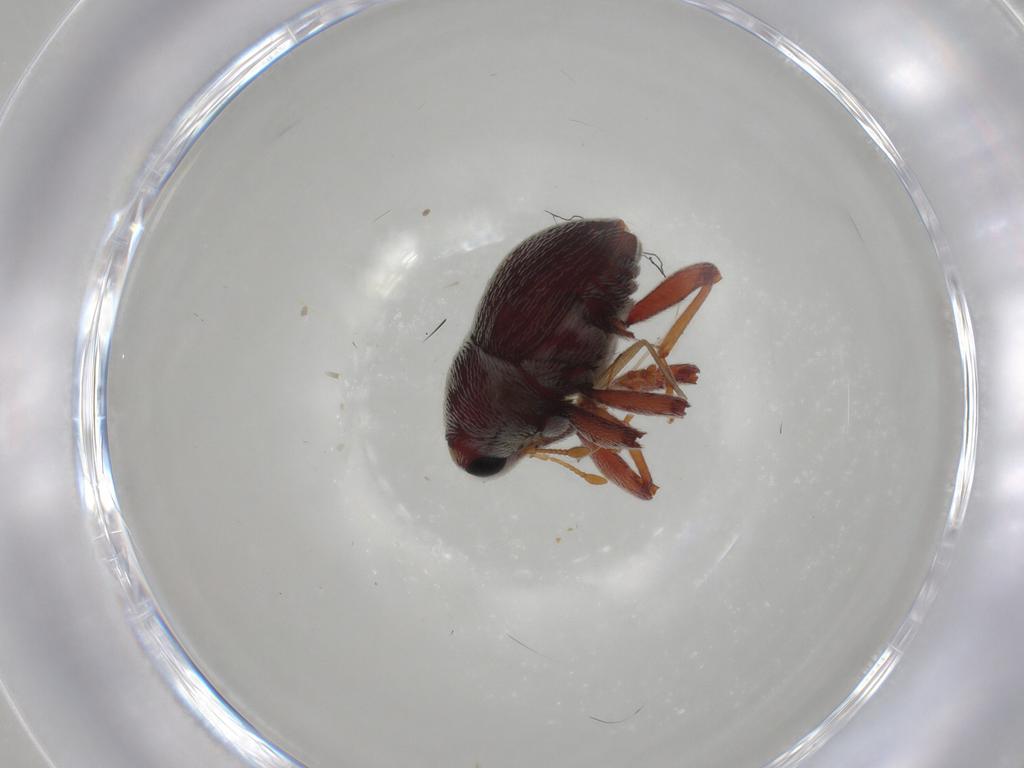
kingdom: Animalia
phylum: Arthropoda
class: Insecta
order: Coleoptera
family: Curculionidae
